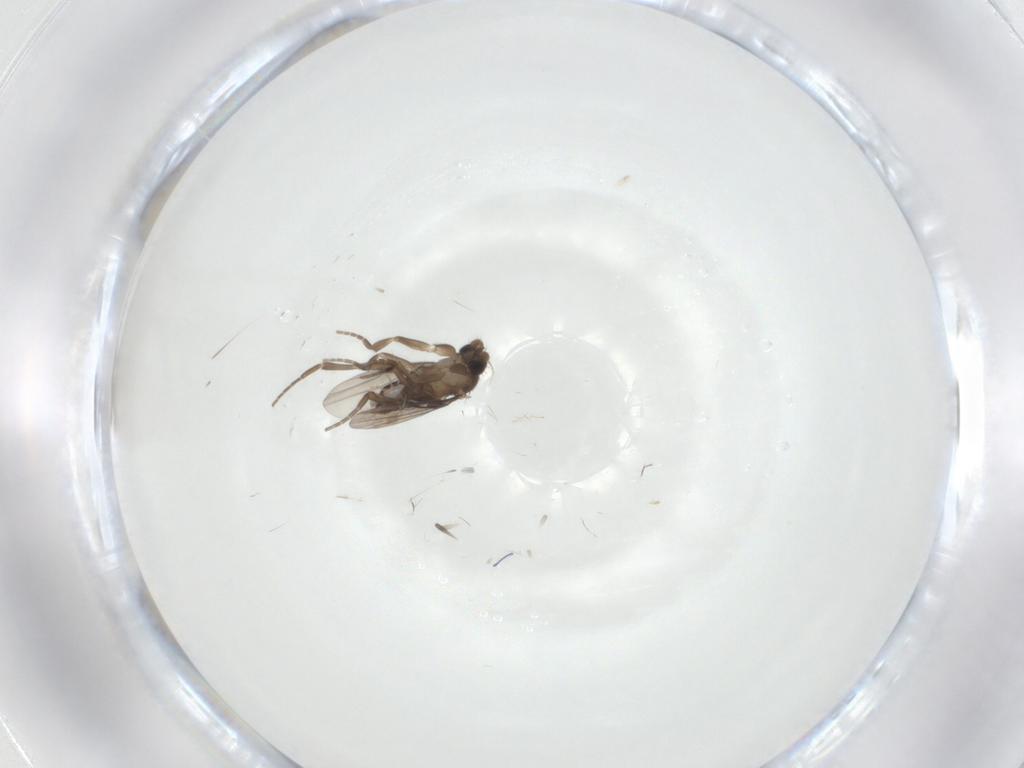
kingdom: Animalia
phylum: Arthropoda
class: Insecta
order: Diptera
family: Phoridae
